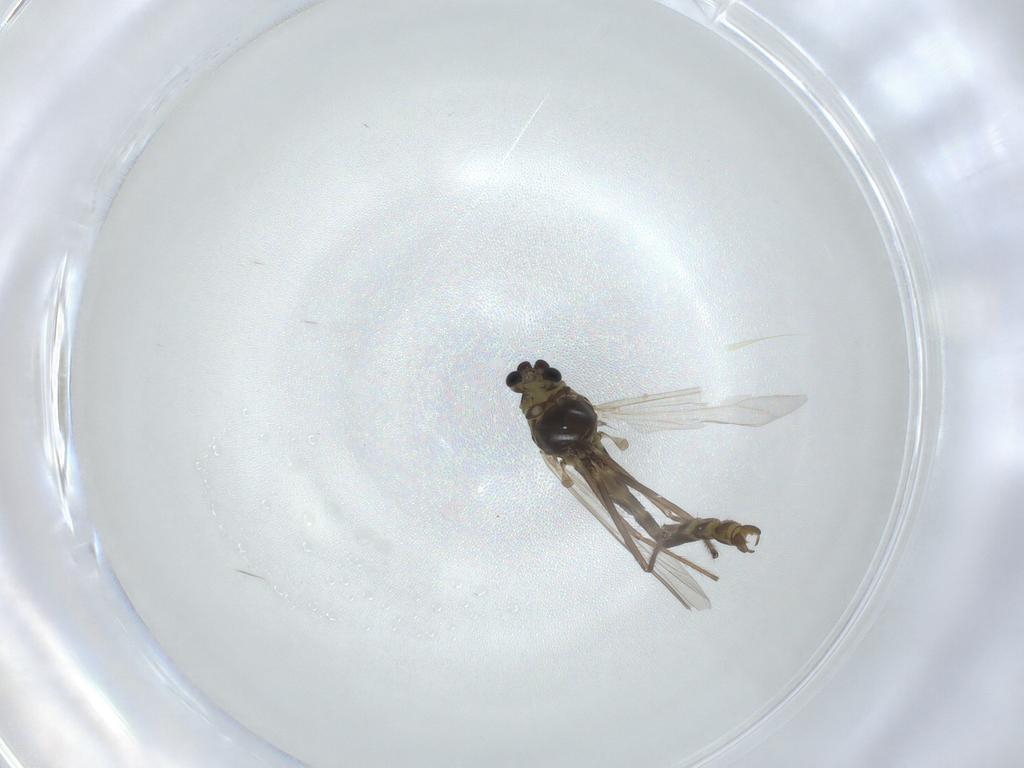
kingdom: Animalia
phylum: Arthropoda
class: Insecta
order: Diptera
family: Chironomidae
